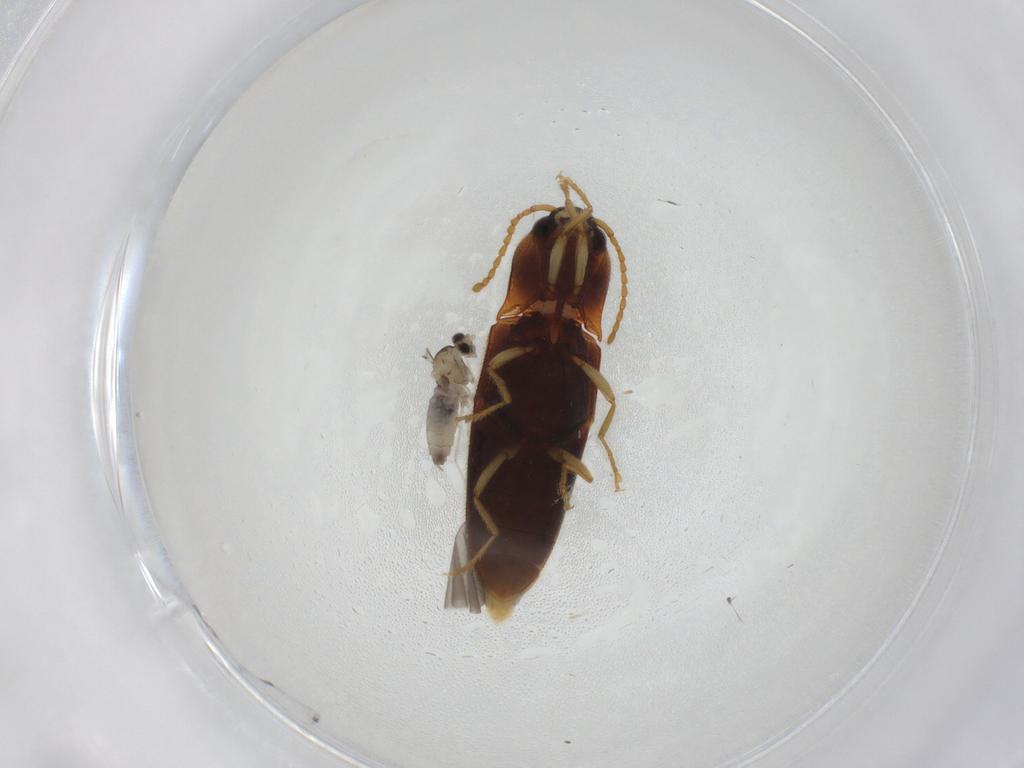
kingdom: Animalia
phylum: Arthropoda
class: Insecta
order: Coleoptera
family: Elateridae
